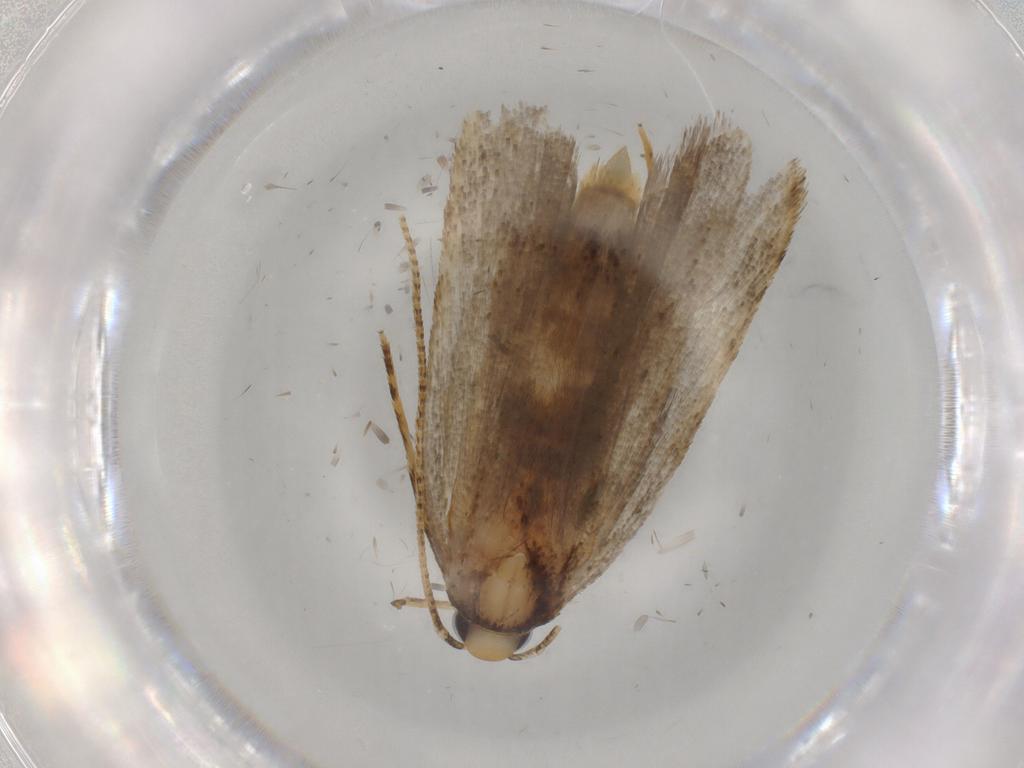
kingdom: Animalia
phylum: Arthropoda
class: Insecta
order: Lepidoptera
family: Autostichidae
